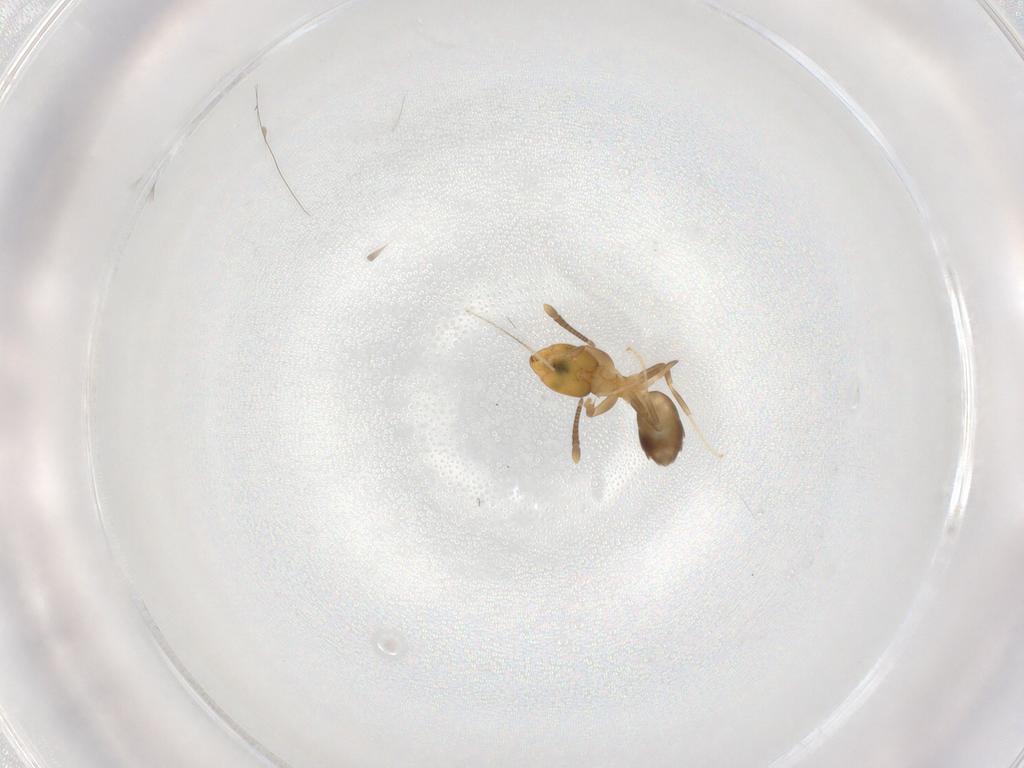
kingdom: Animalia
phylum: Arthropoda
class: Insecta
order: Hymenoptera
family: Formicidae
